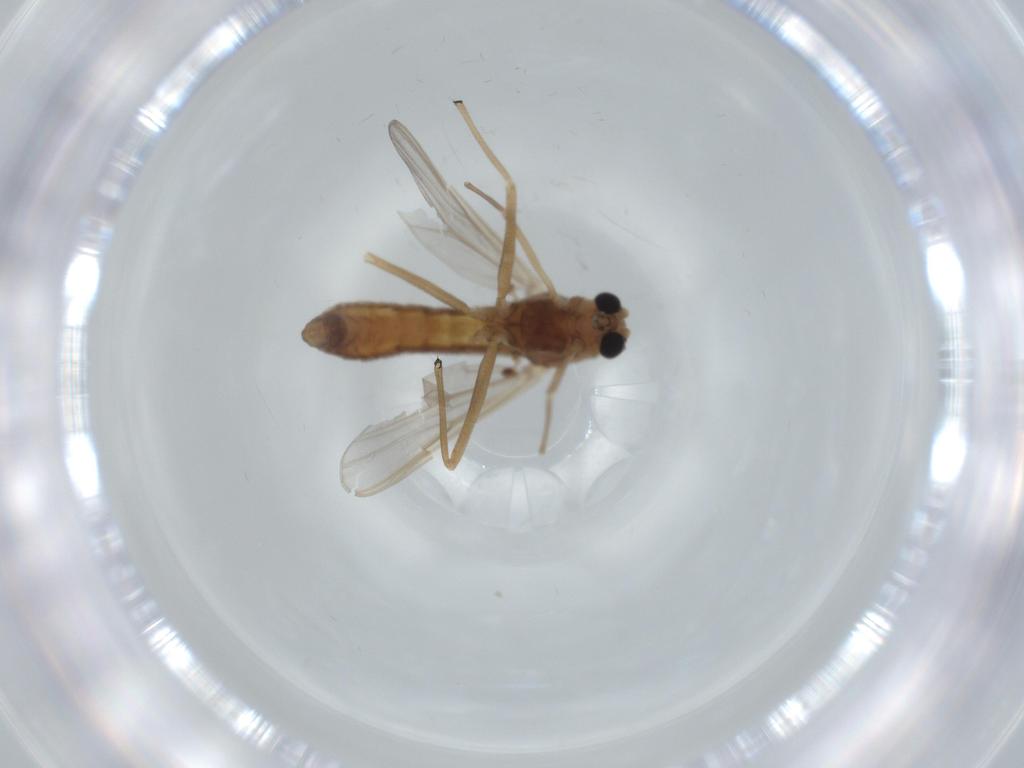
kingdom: Animalia
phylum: Arthropoda
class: Insecta
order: Diptera
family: Chironomidae
